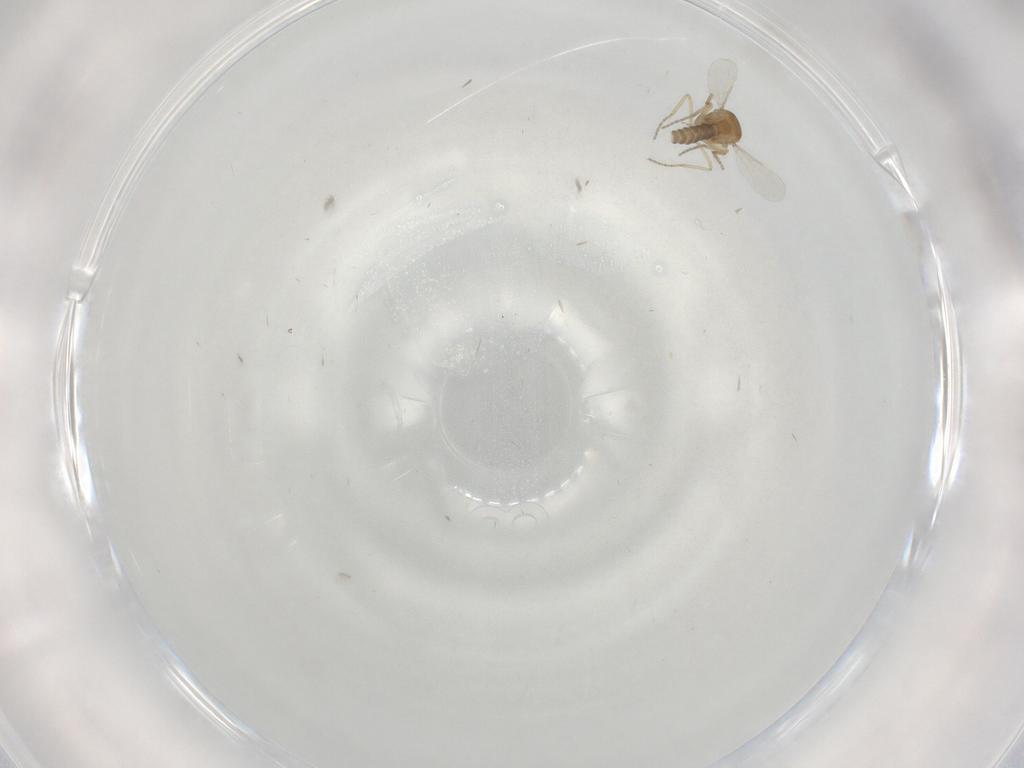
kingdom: Animalia
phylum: Arthropoda
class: Insecta
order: Diptera
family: Ceratopogonidae
